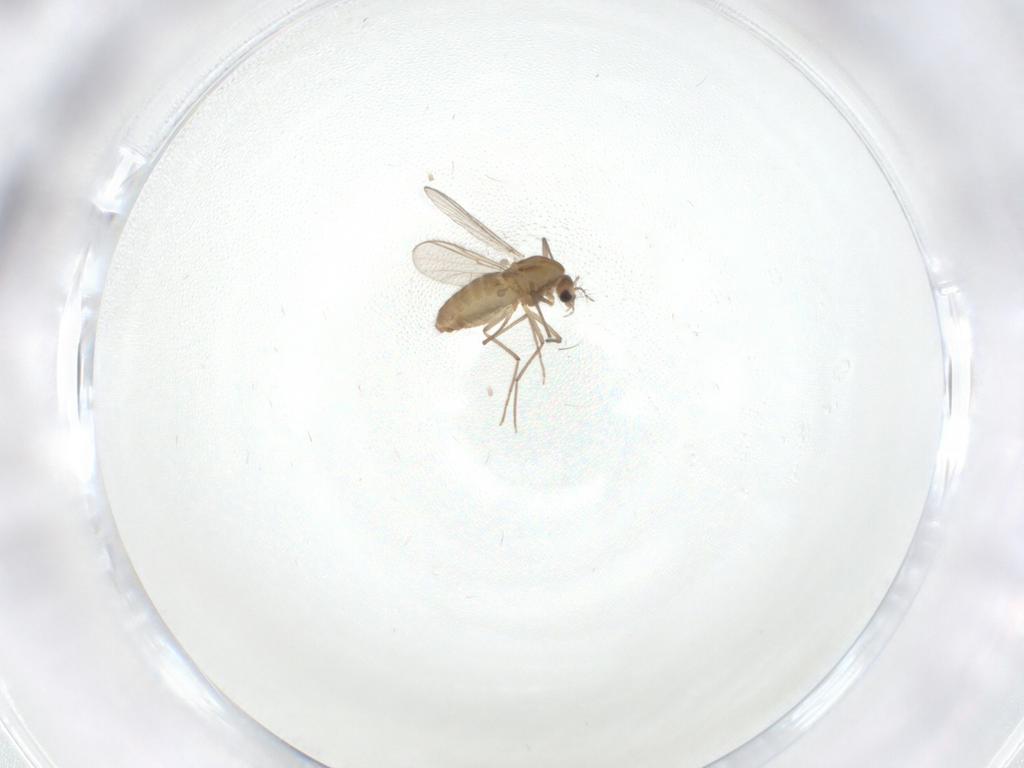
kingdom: Animalia
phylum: Arthropoda
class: Insecta
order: Diptera
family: Chironomidae
